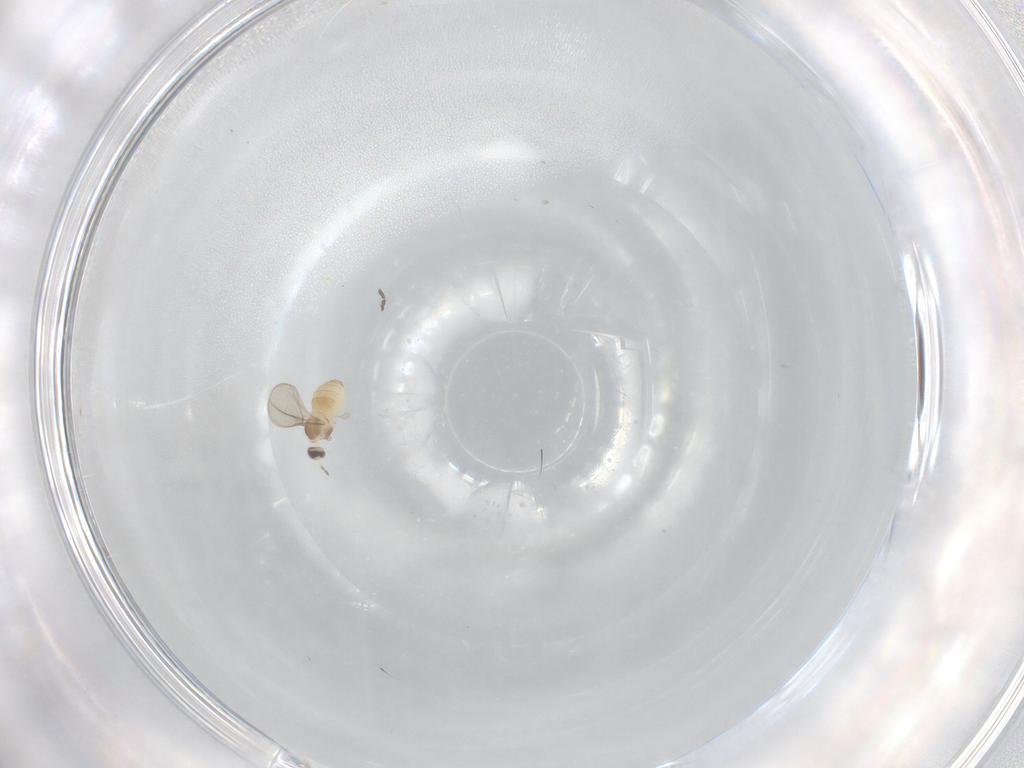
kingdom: Animalia
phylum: Arthropoda
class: Insecta
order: Diptera
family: Cecidomyiidae
